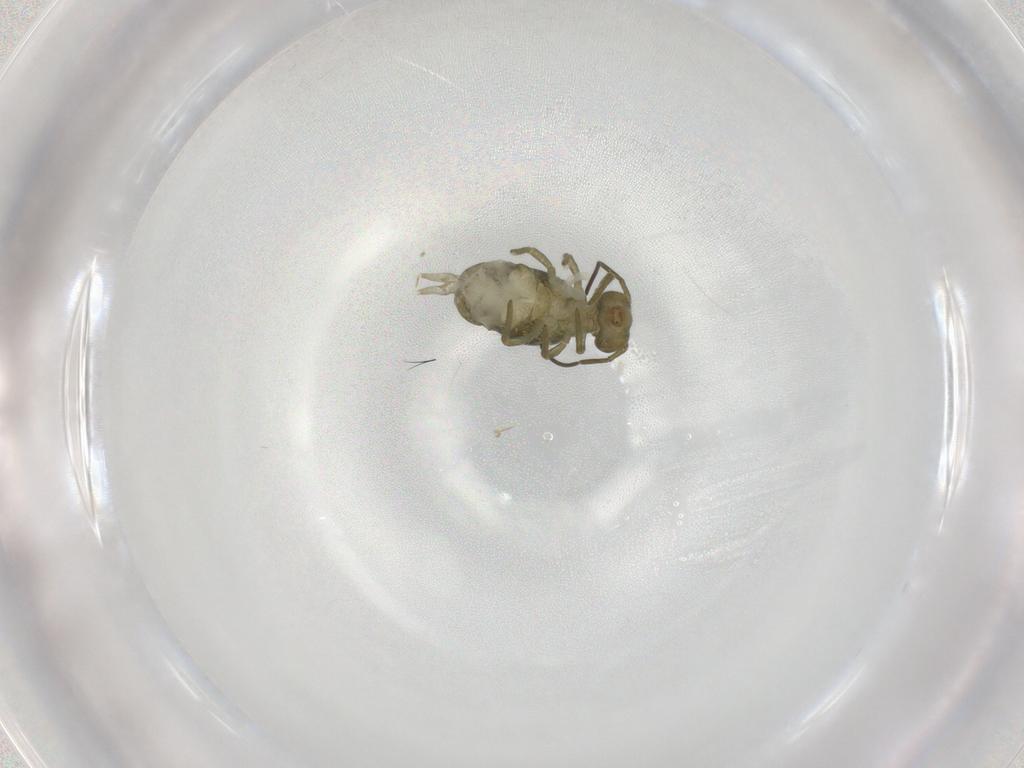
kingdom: Animalia
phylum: Arthropoda
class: Collembola
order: Symphypleona
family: Sminthuridae
